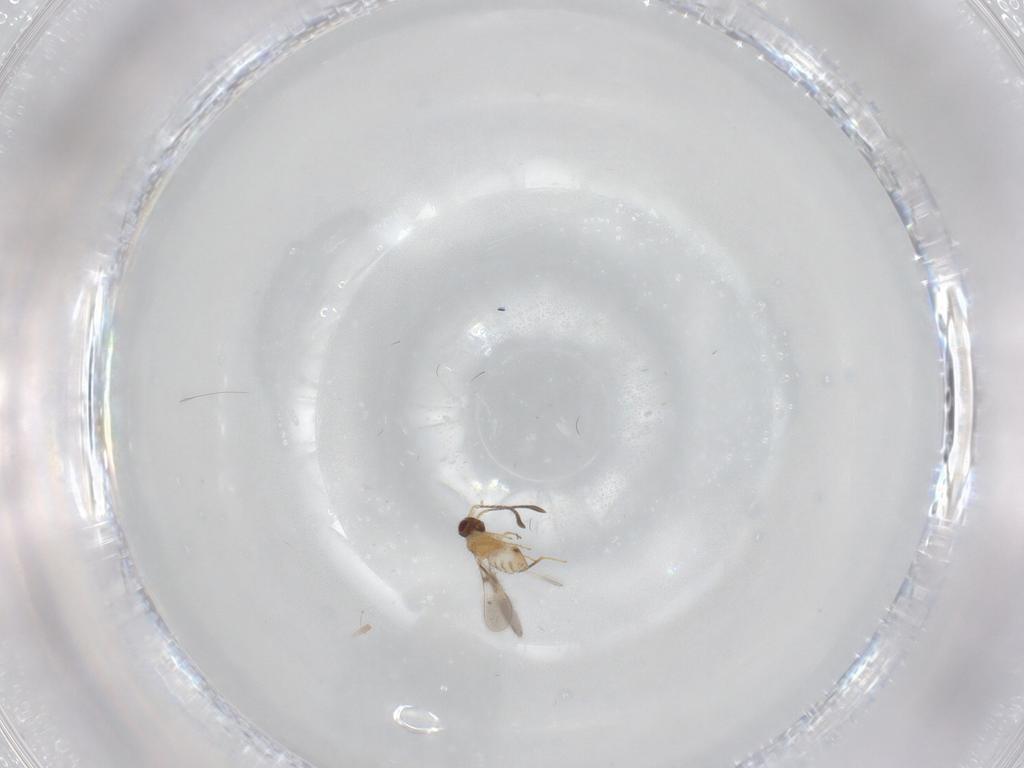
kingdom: Animalia
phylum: Arthropoda
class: Insecta
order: Hymenoptera
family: Mymaridae
